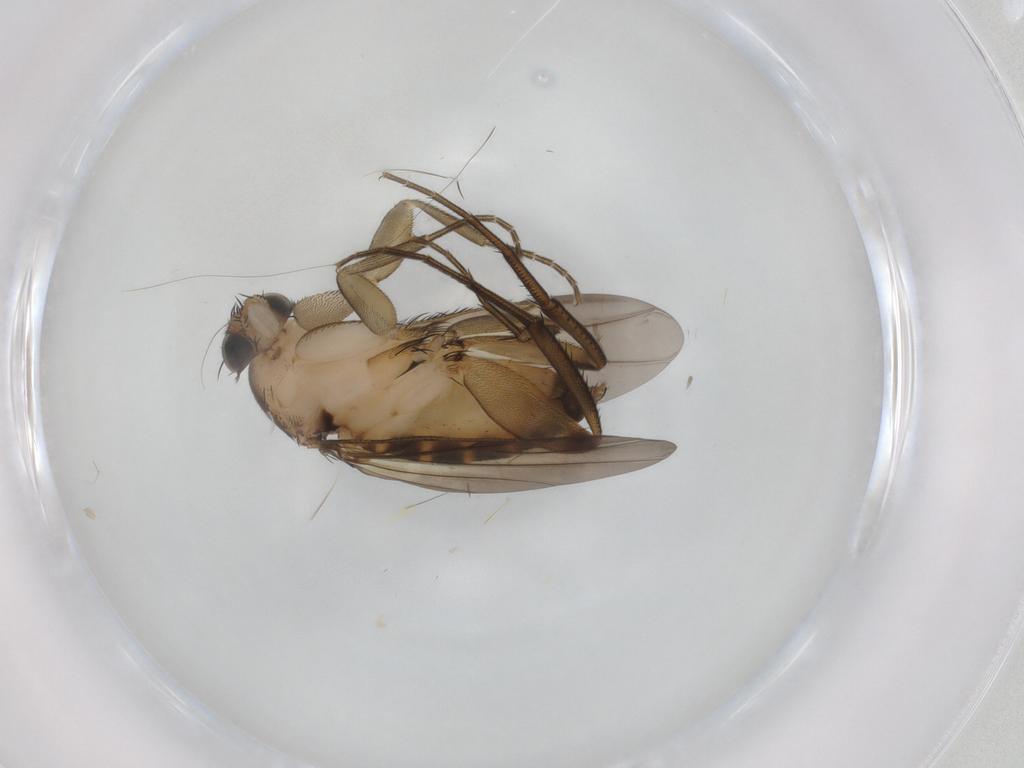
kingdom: Animalia
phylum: Arthropoda
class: Insecta
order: Diptera
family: Phoridae
